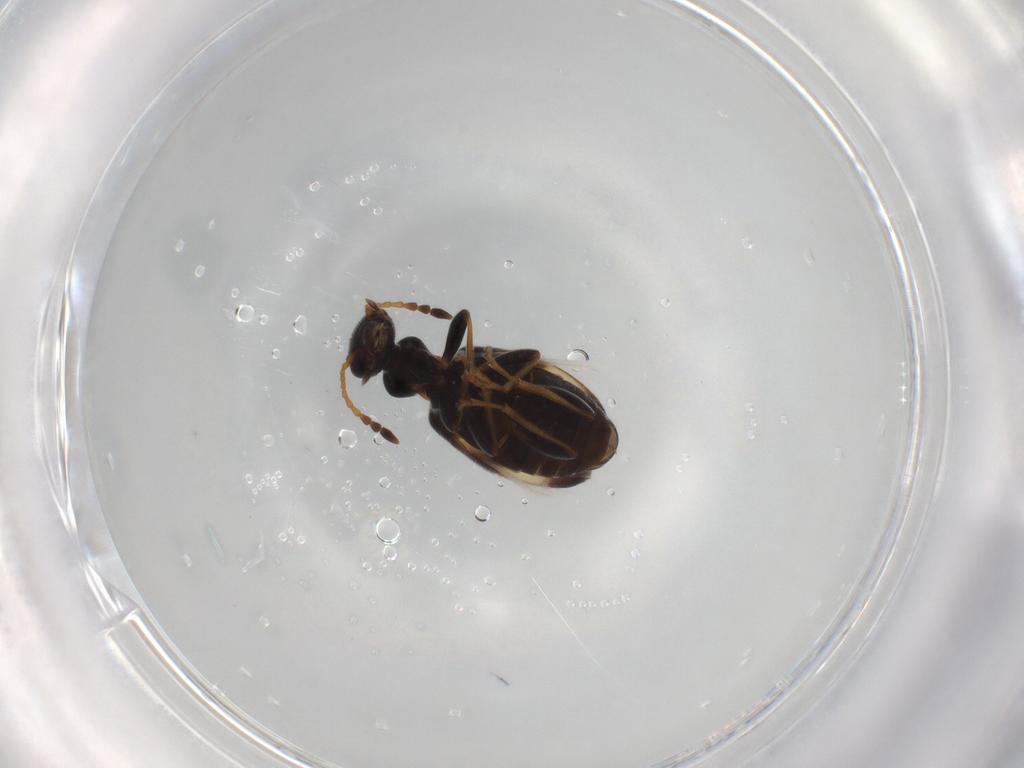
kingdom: Animalia
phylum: Arthropoda
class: Insecta
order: Coleoptera
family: Anthicidae
